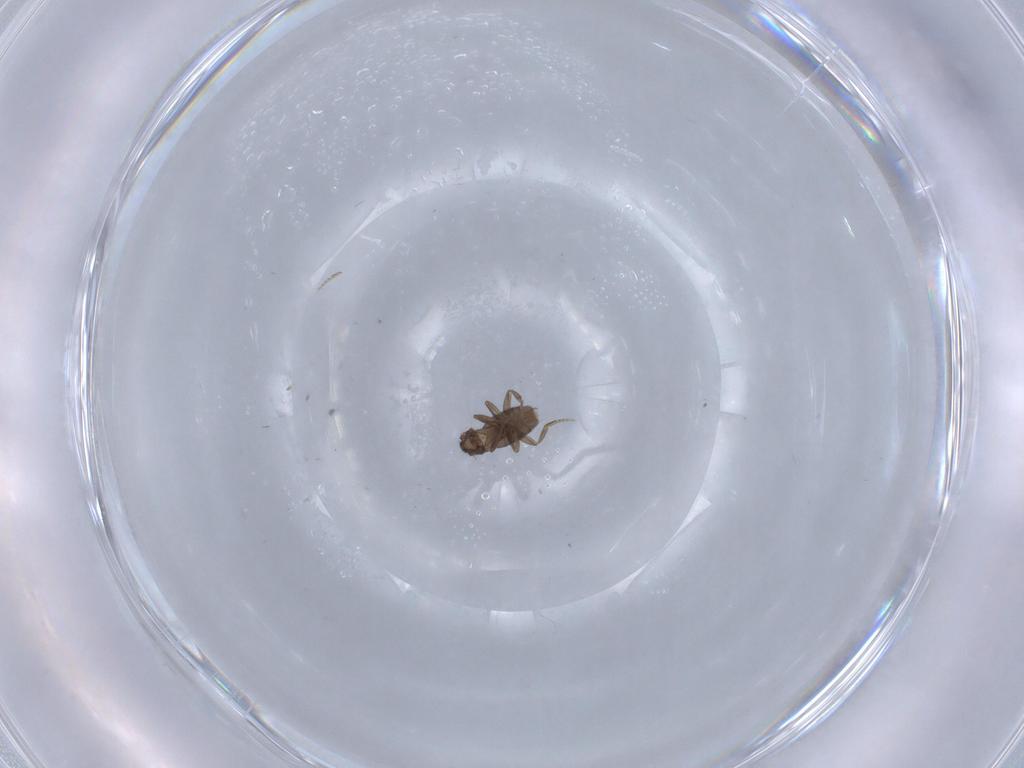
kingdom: Animalia
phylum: Arthropoda
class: Insecta
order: Diptera
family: Phoridae
